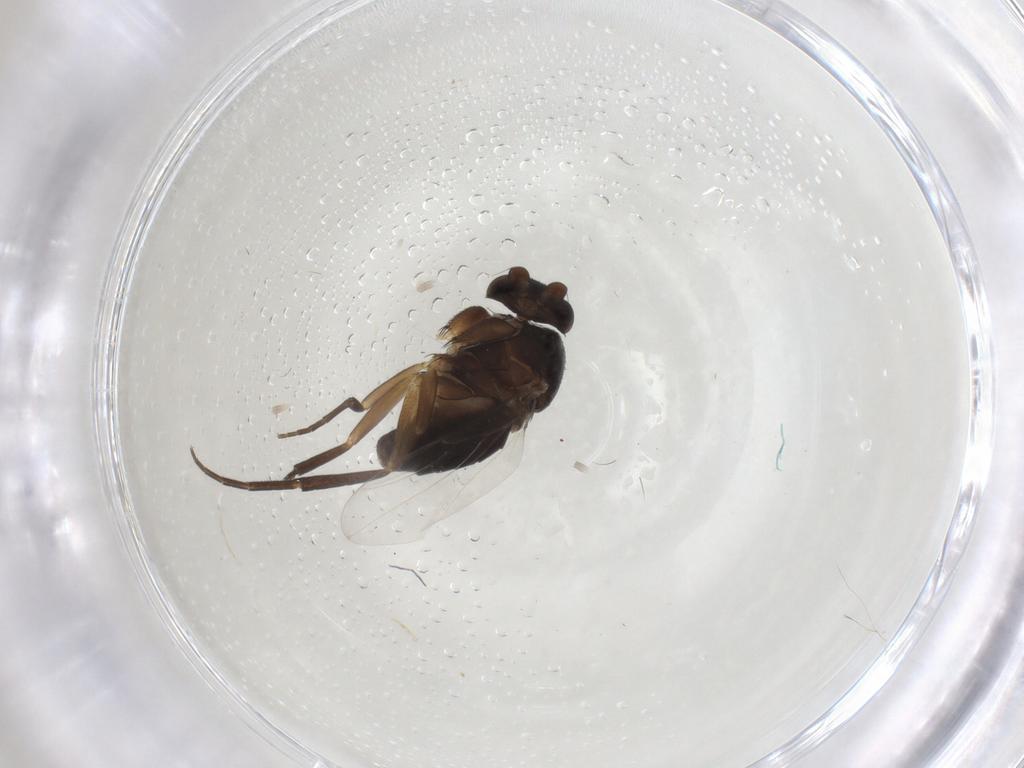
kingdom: Animalia
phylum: Arthropoda
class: Insecta
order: Diptera
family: Phoridae
